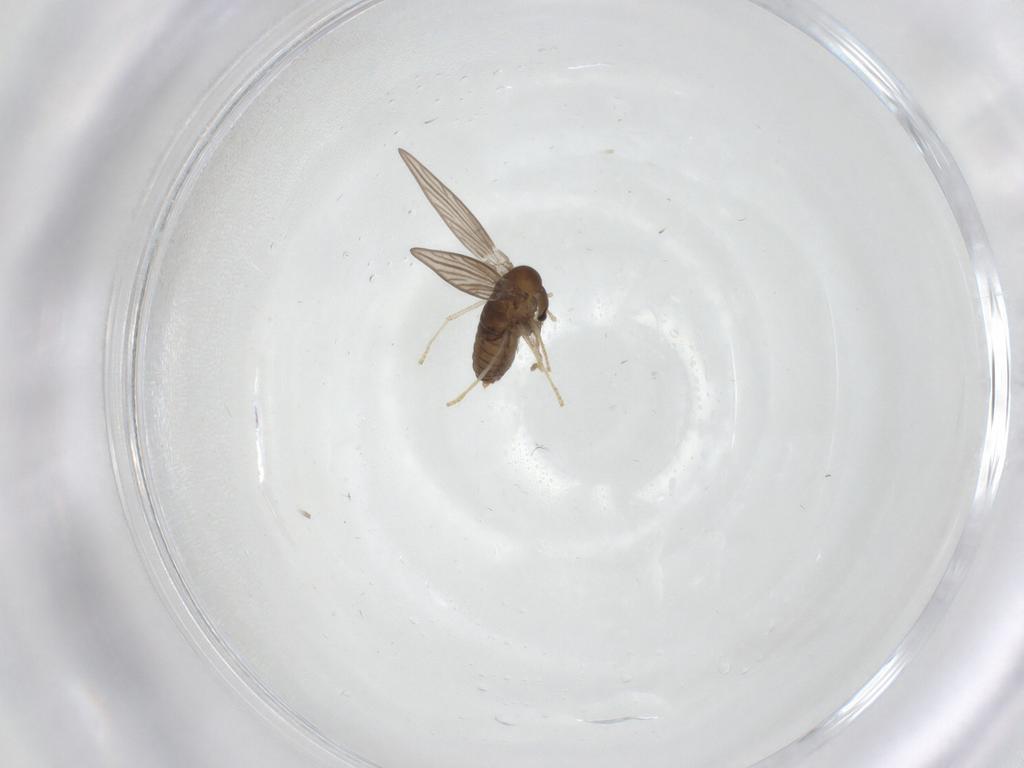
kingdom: Animalia
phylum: Arthropoda
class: Insecta
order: Diptera
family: Psychodidae
